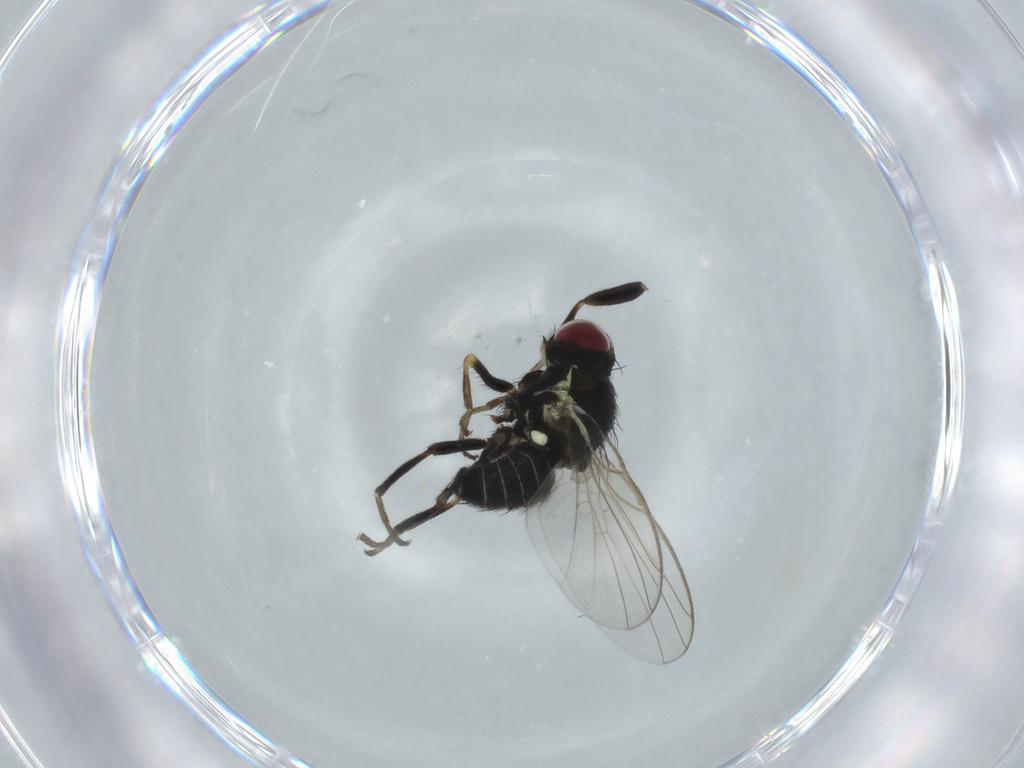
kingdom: Animalia
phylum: Arthropoda
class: Insecta
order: Diptera
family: Agromyzidae
